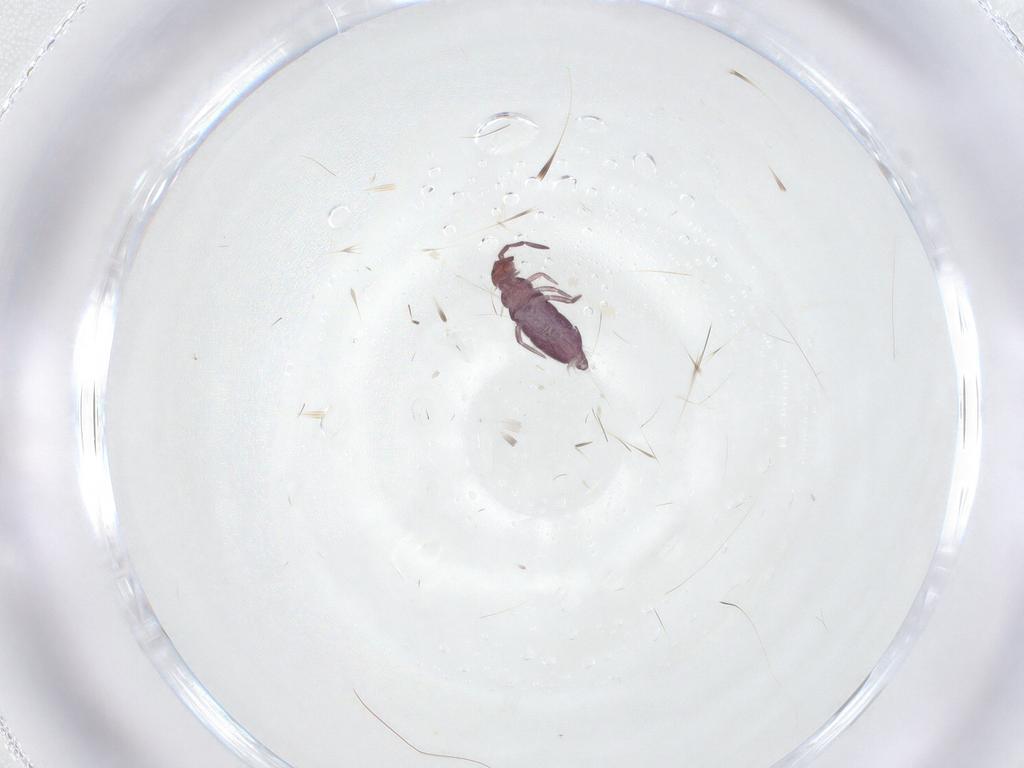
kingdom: Animalia
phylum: Arthropoda
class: Collembola
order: Entomobryomorpha
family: Entomobryidae
